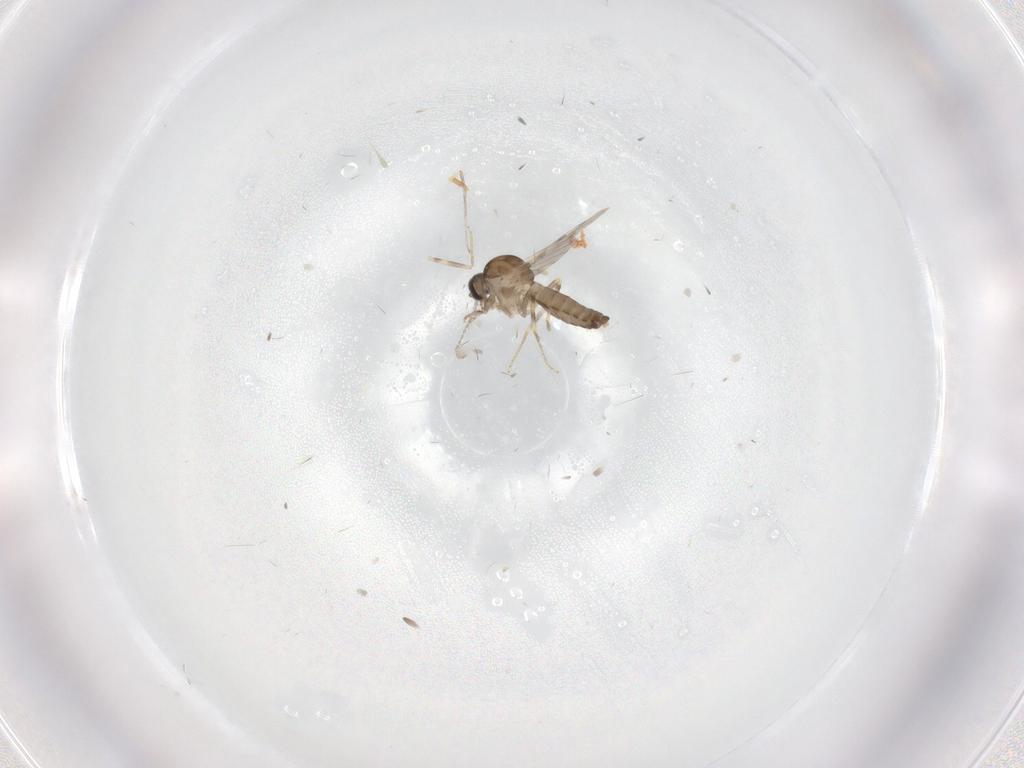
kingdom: Animalia
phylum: Arthropoda
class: Insecta
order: Diptera
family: Ceratopogonidae
